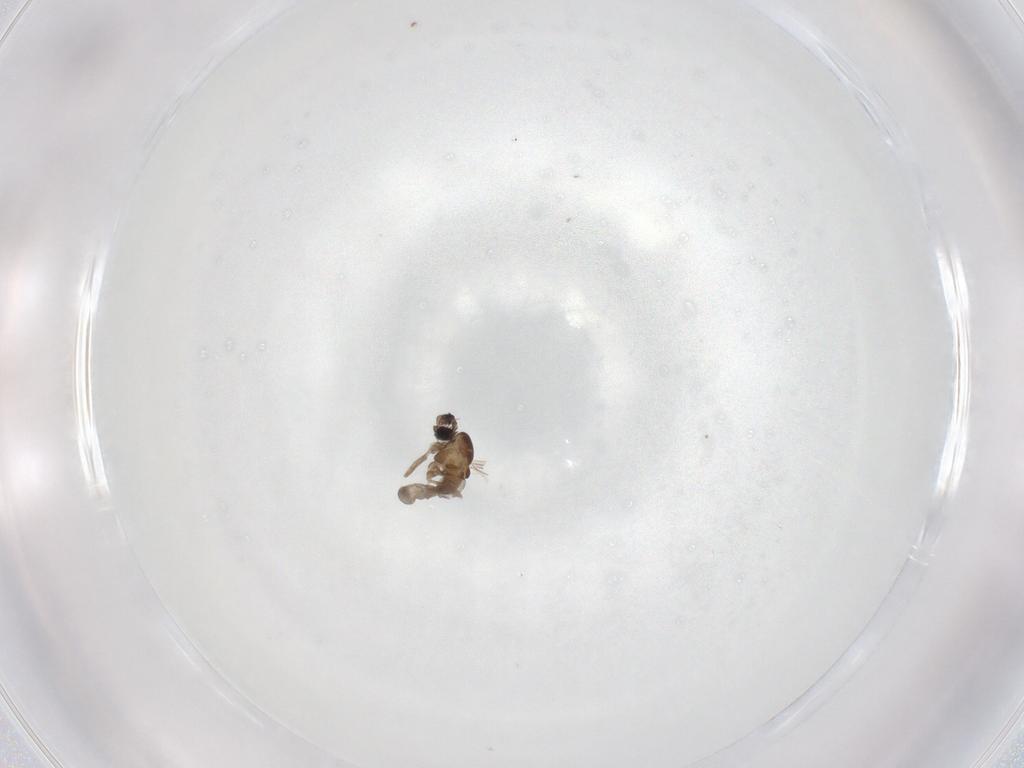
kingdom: Animalia
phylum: Arthropoda
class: Insecta
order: Diptera
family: Cecidomyiidae
